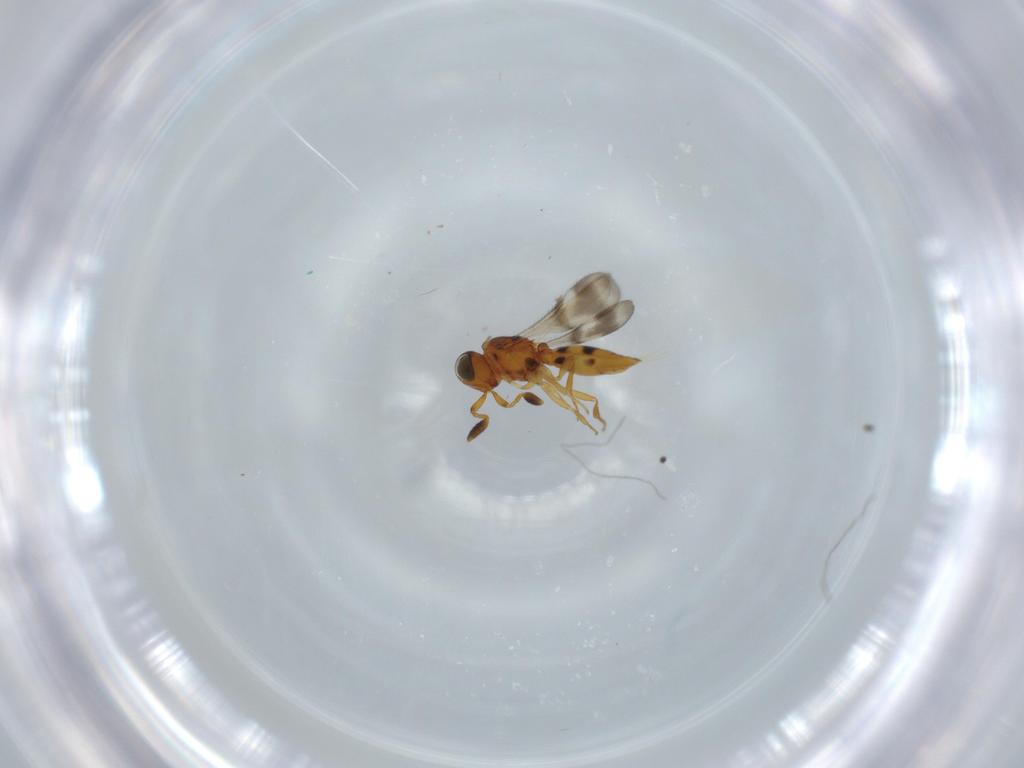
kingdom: Animalia
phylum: Arthropoda
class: Insecta
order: Hymenoptera
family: Scelionidae
